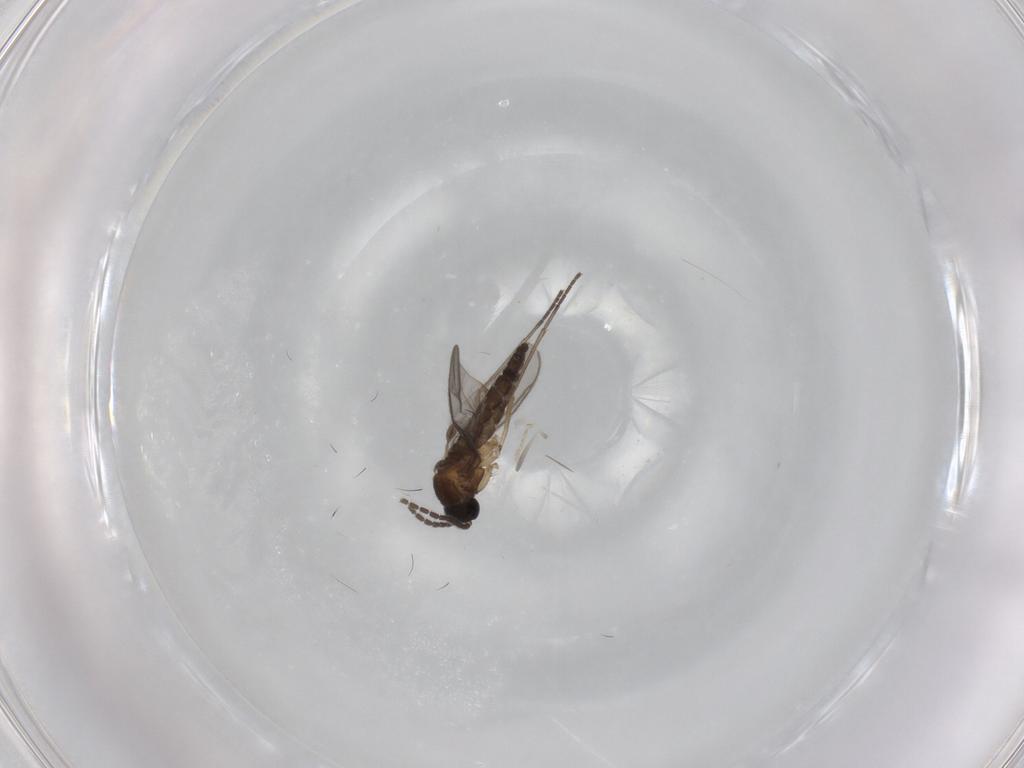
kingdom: Animalia
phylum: Arthropoda
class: Insecta
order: Diptera
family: Sciaridae
